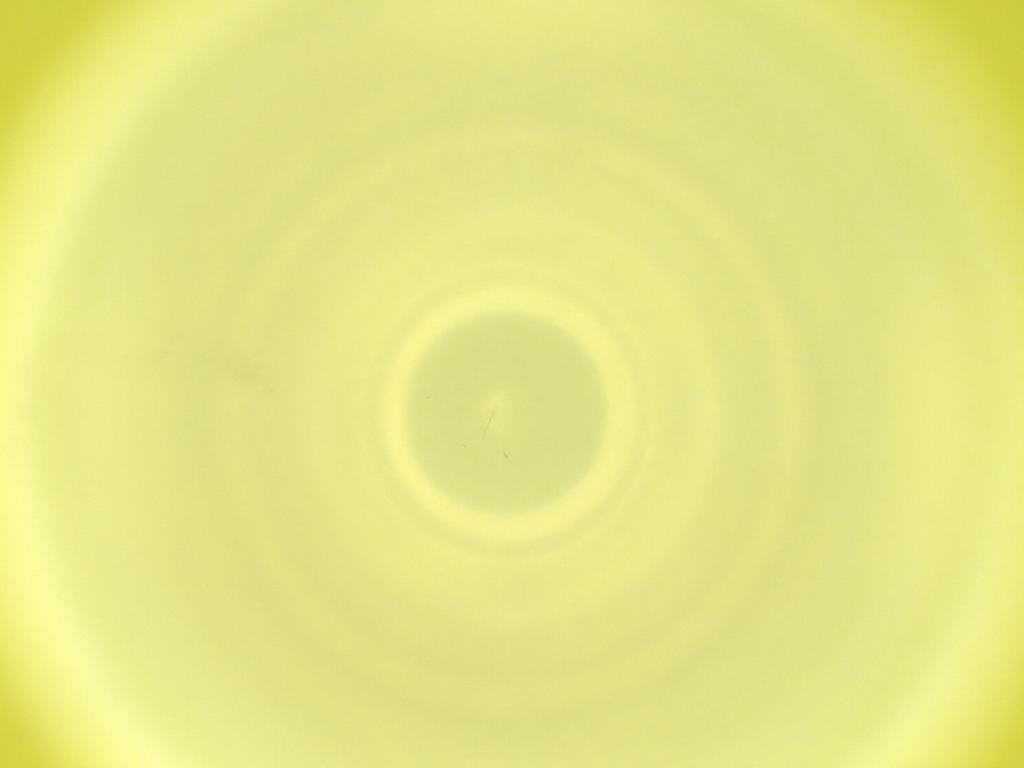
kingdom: Animalia
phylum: Arthropoda
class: Insecta
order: Diptera
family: Cecidomyiidae
